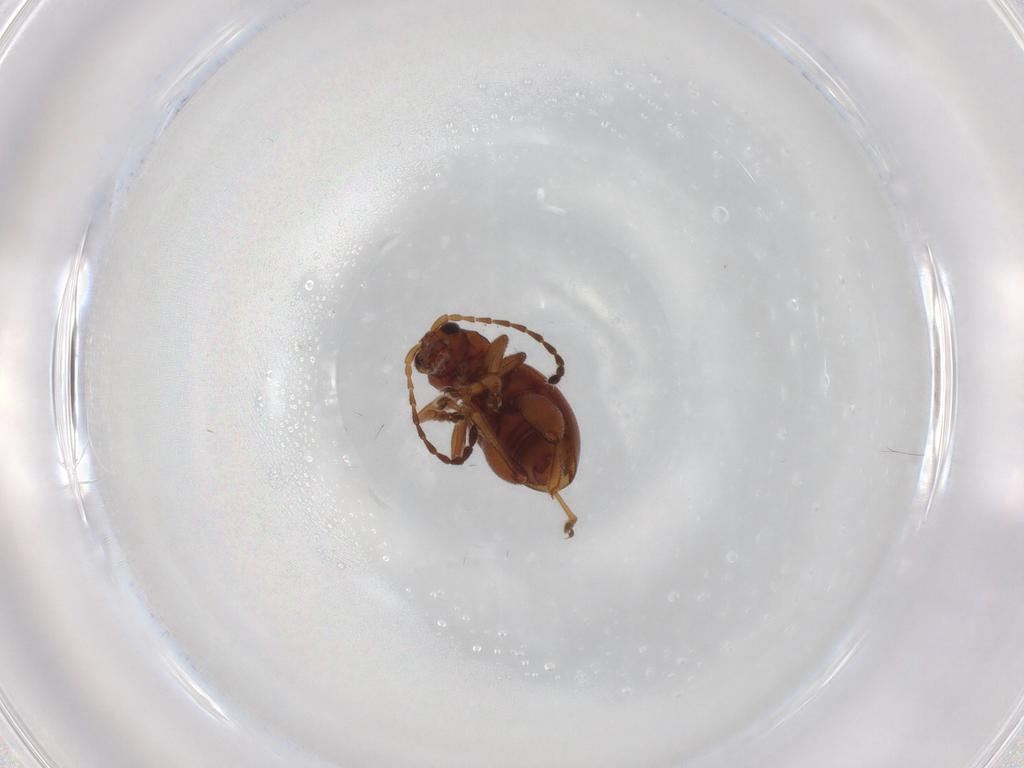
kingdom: Animalia
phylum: Arthropoda
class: Insecta
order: Coleoptera
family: Chrysomelidae
